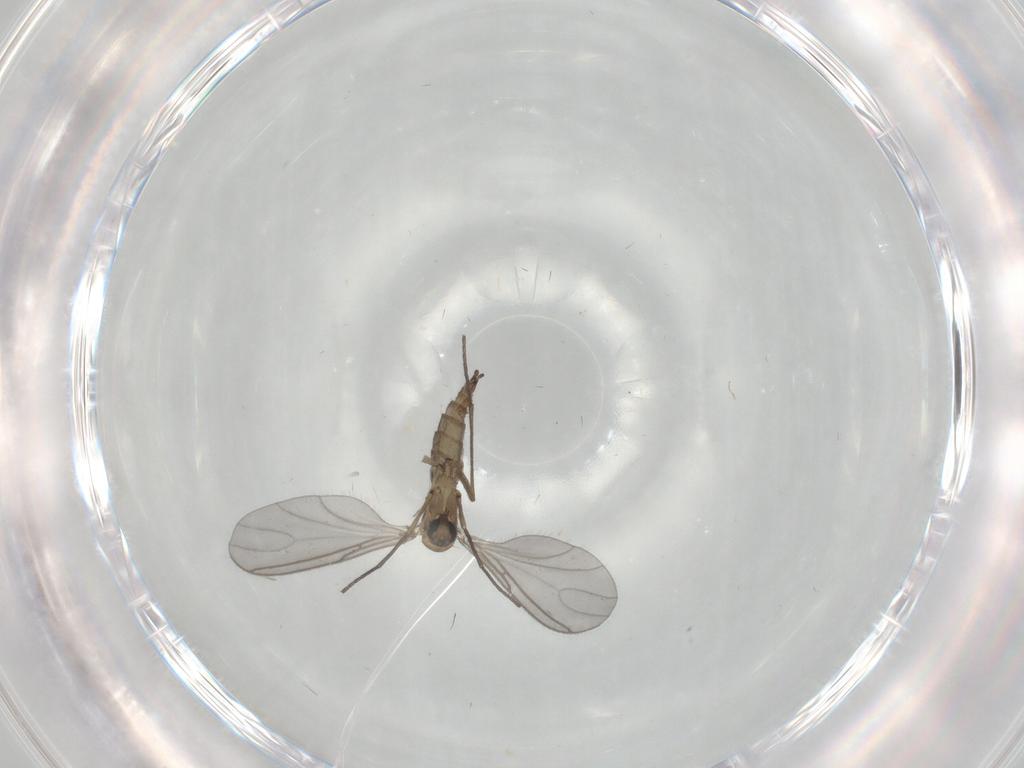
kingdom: Animalia
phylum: Arthropoda
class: Insecta
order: Diptera
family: Sciaridae
